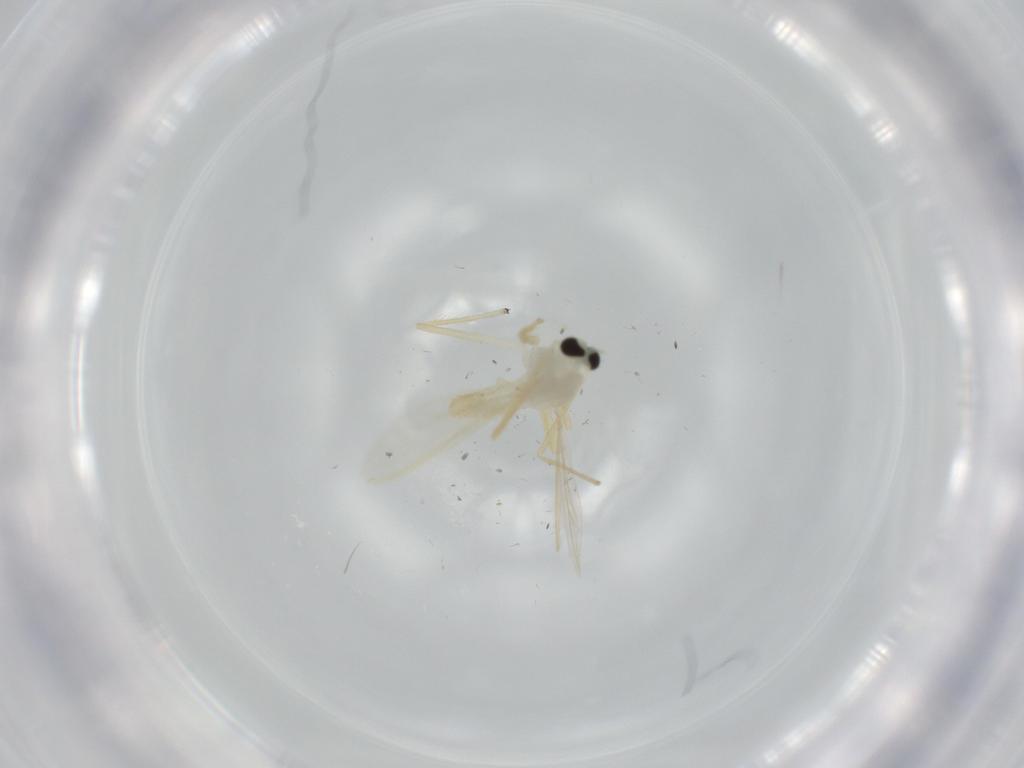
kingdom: Animalia
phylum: Arthropoda
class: Insecta
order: Diptera
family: Chironomidae
